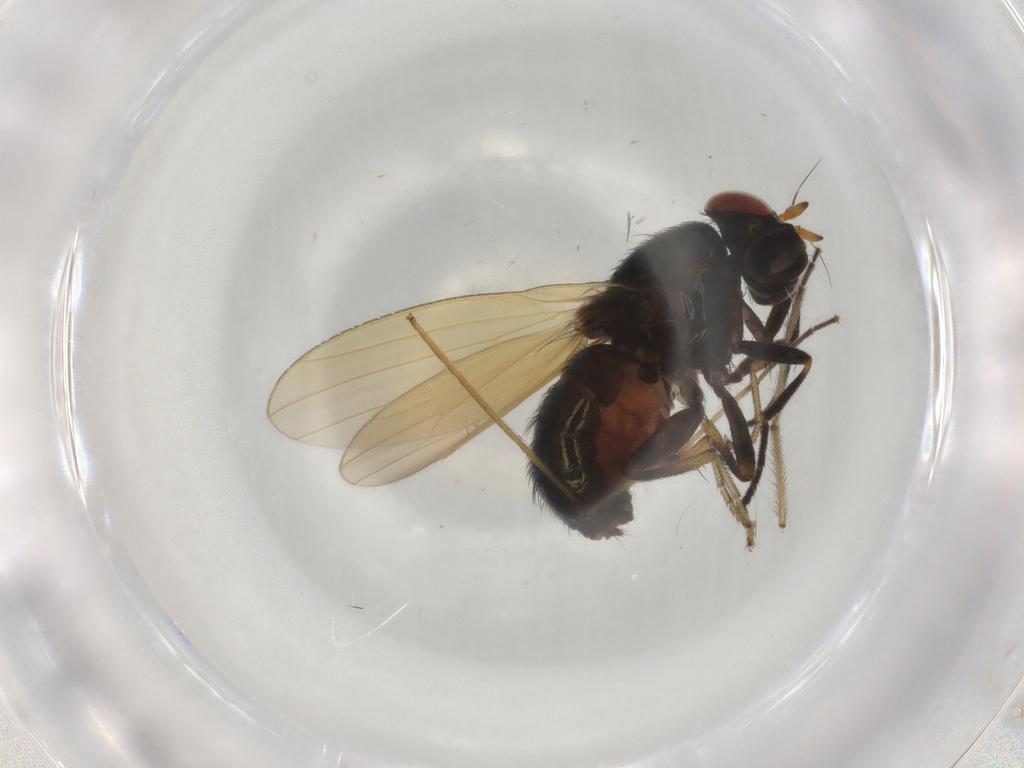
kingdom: Animalia
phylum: Arthropoda
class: Insecta
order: Diptera
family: Chironomidae
